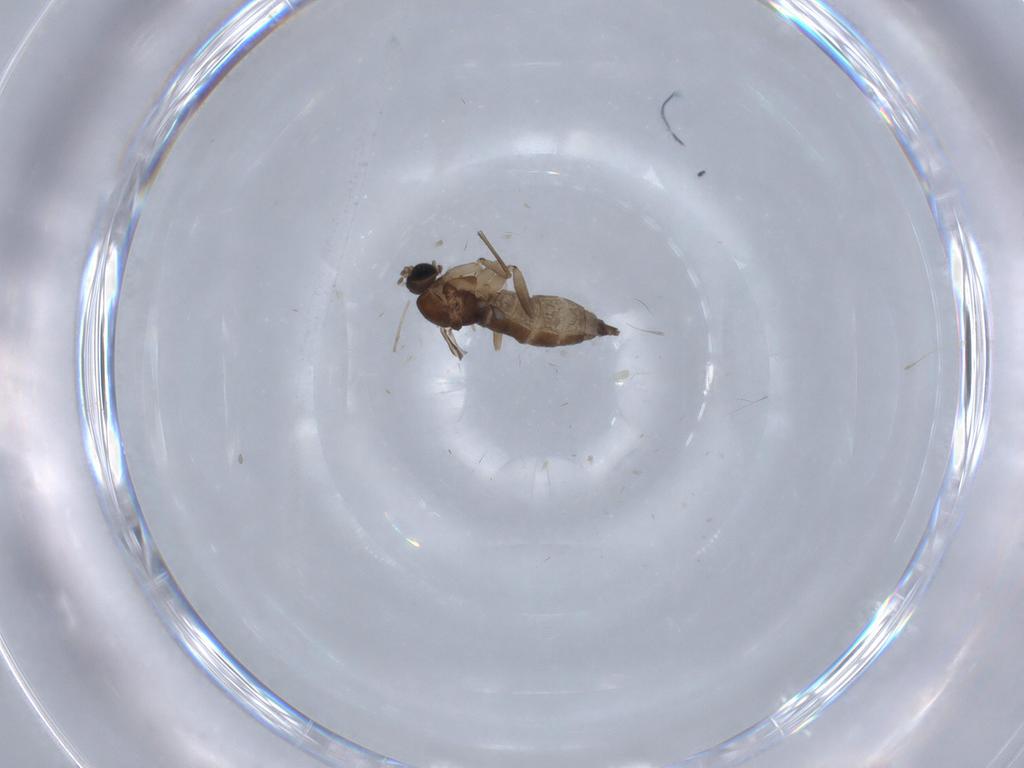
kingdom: Animalia
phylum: Arthropoda
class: Insecta
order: Diptera
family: Sciaridae
